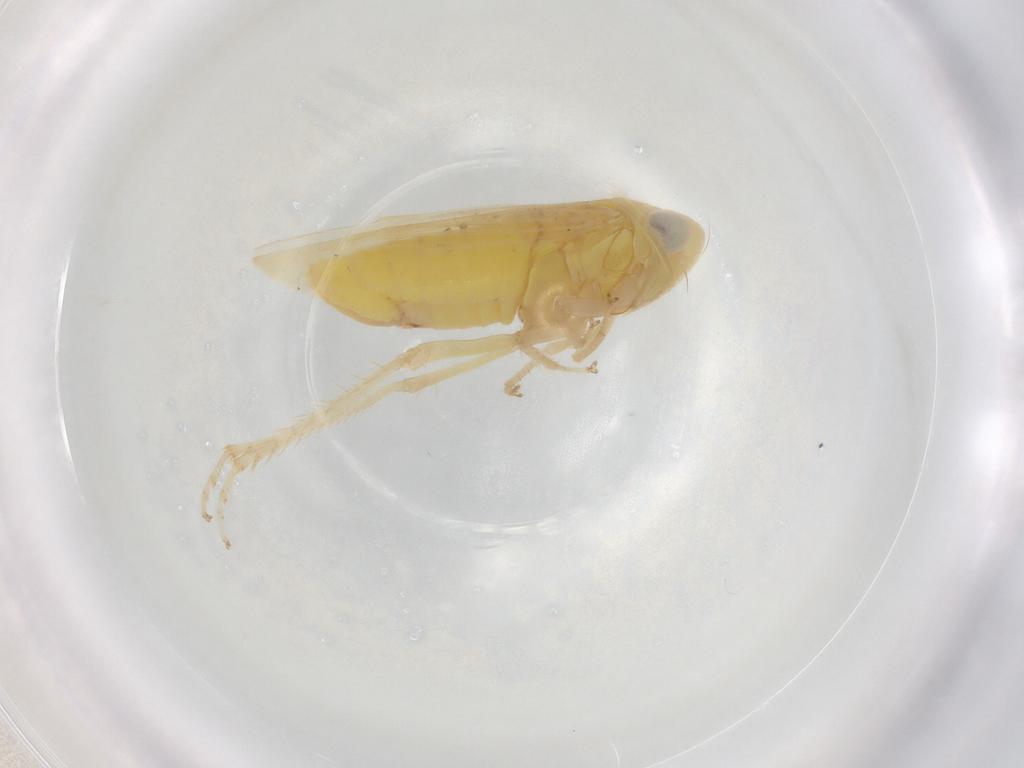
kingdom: Animalia
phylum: Arthropoda
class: Insecta
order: Hemiptera
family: Cicadellidae
